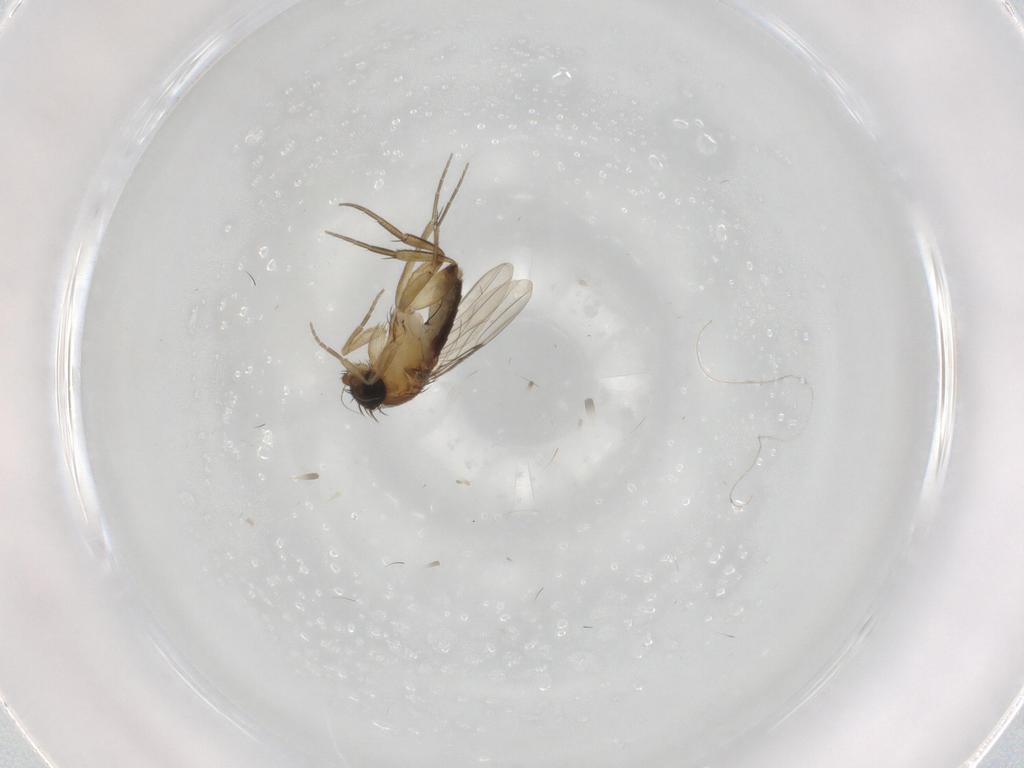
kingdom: Animalia
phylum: Arthropoda
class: Insecta
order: Diptera
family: Phoridae
